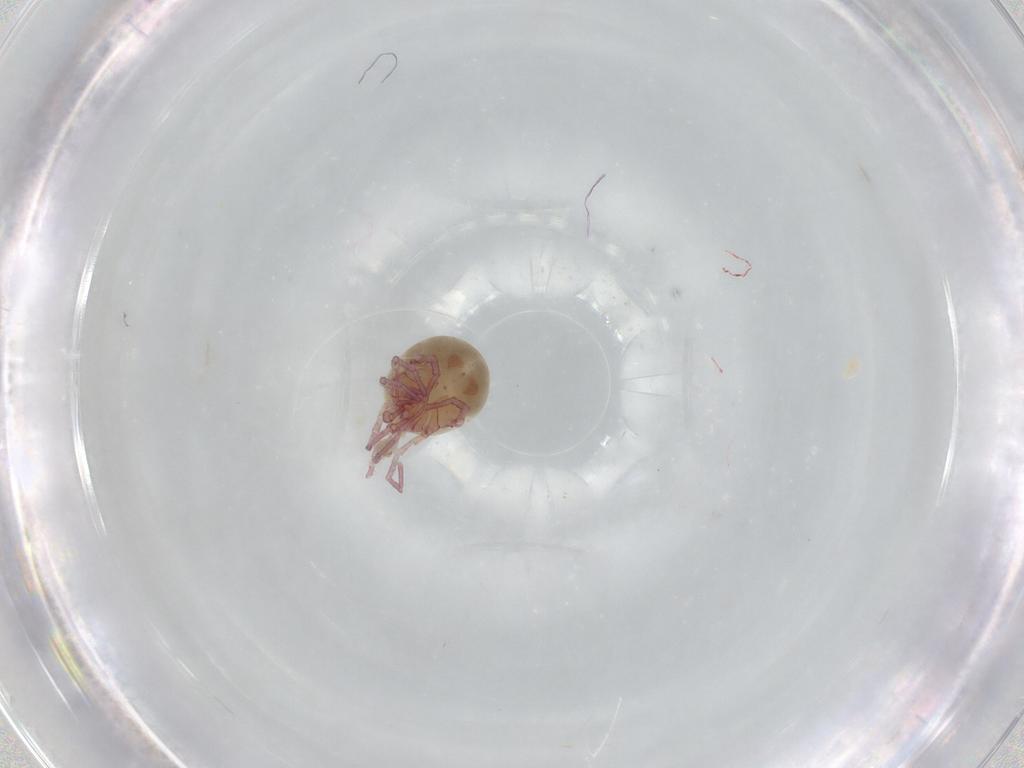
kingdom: Animalia
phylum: Arthropoda
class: Arachnida
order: Trombidiformes
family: Pionidae
